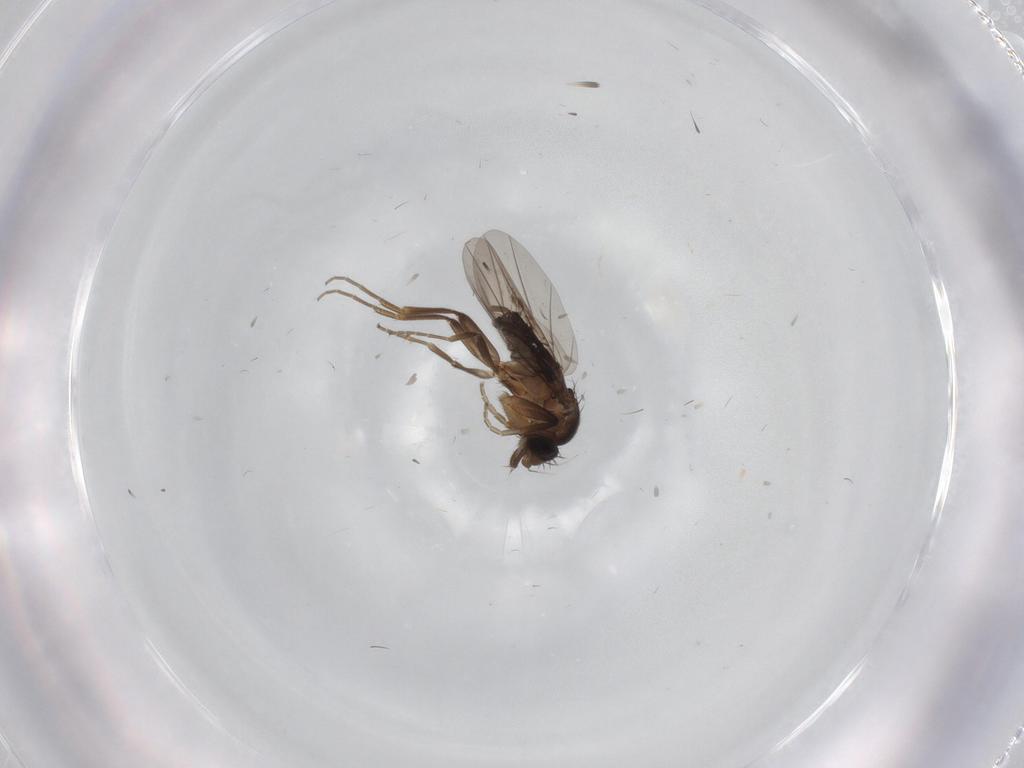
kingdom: Animalia
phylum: Arthropoda
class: Insecta
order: Diptera
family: Phoridae
